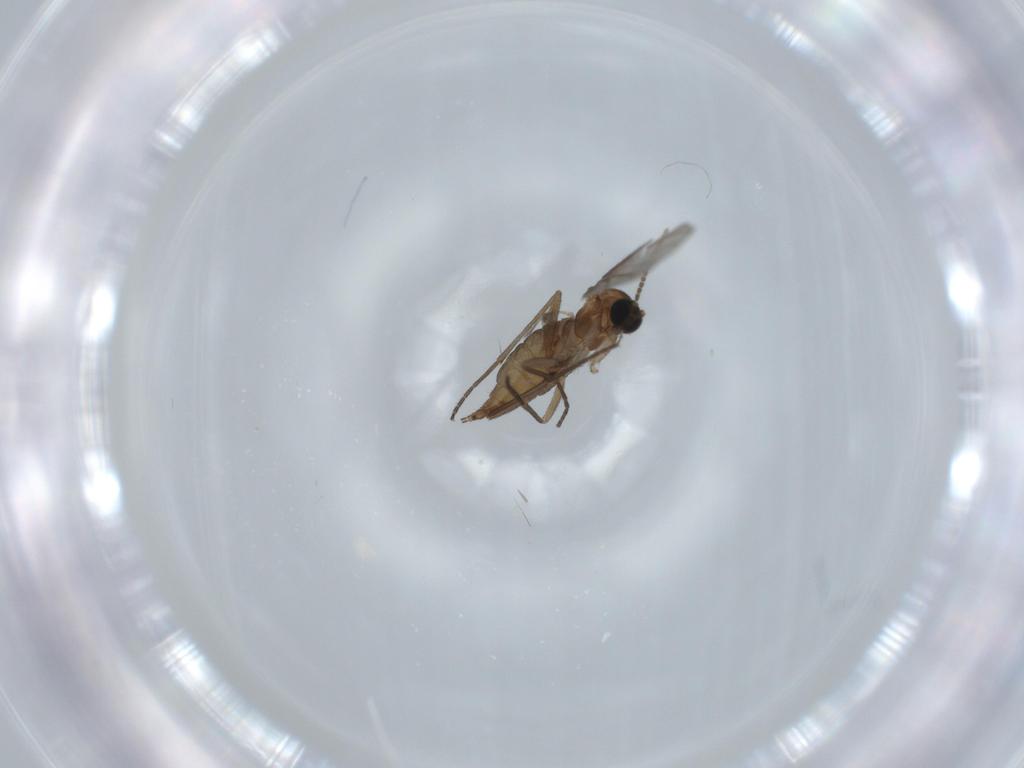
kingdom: Animalia
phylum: Arthropoda
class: Insecta
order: Diptera
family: Sciaridae
